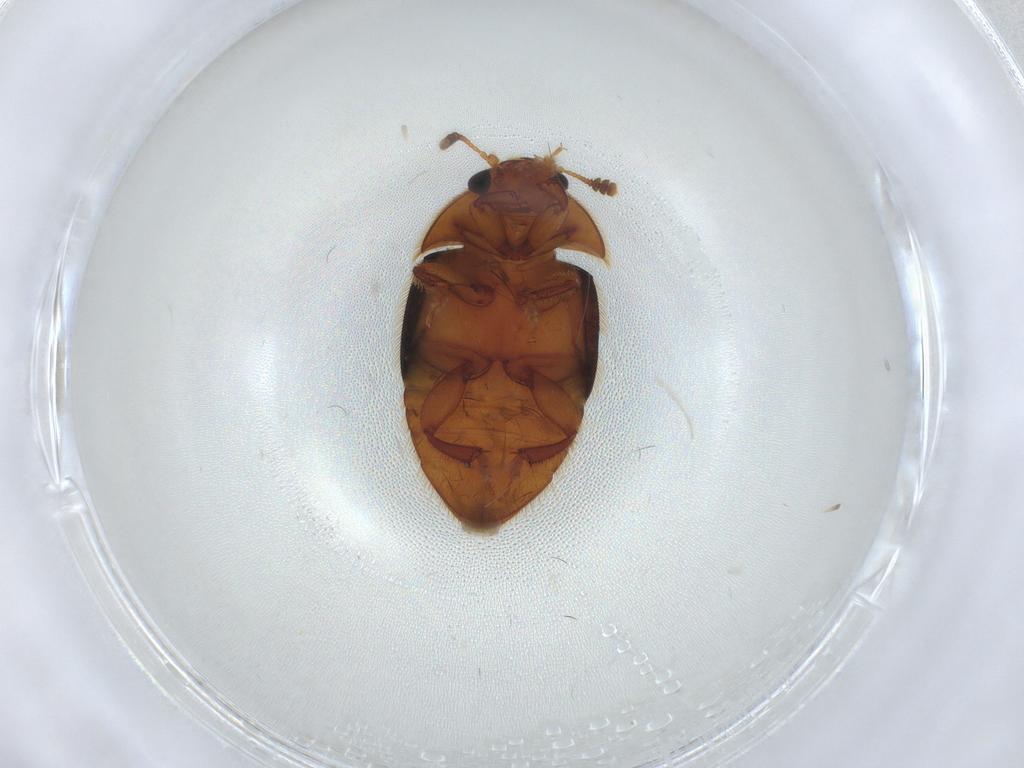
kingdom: Animalia
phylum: Arthropoda
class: Insecta
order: Coleoptera
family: Nitidulidae
